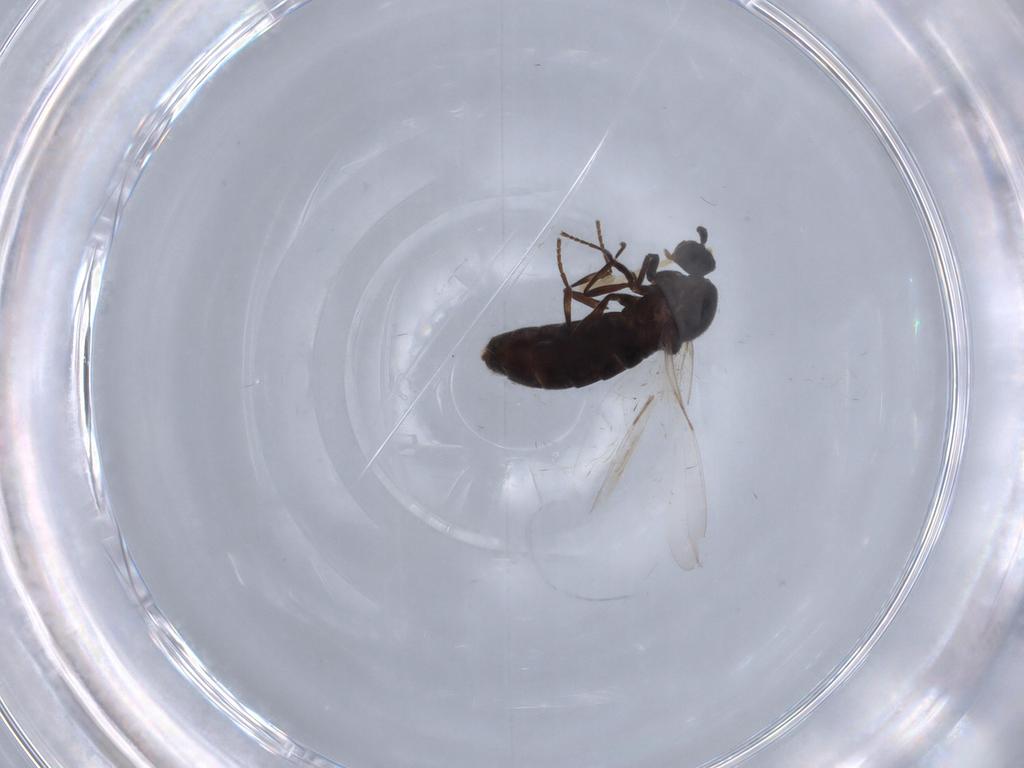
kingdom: Animalia
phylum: Arthropoda
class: Insecta
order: Diptera
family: Scatopsidae
